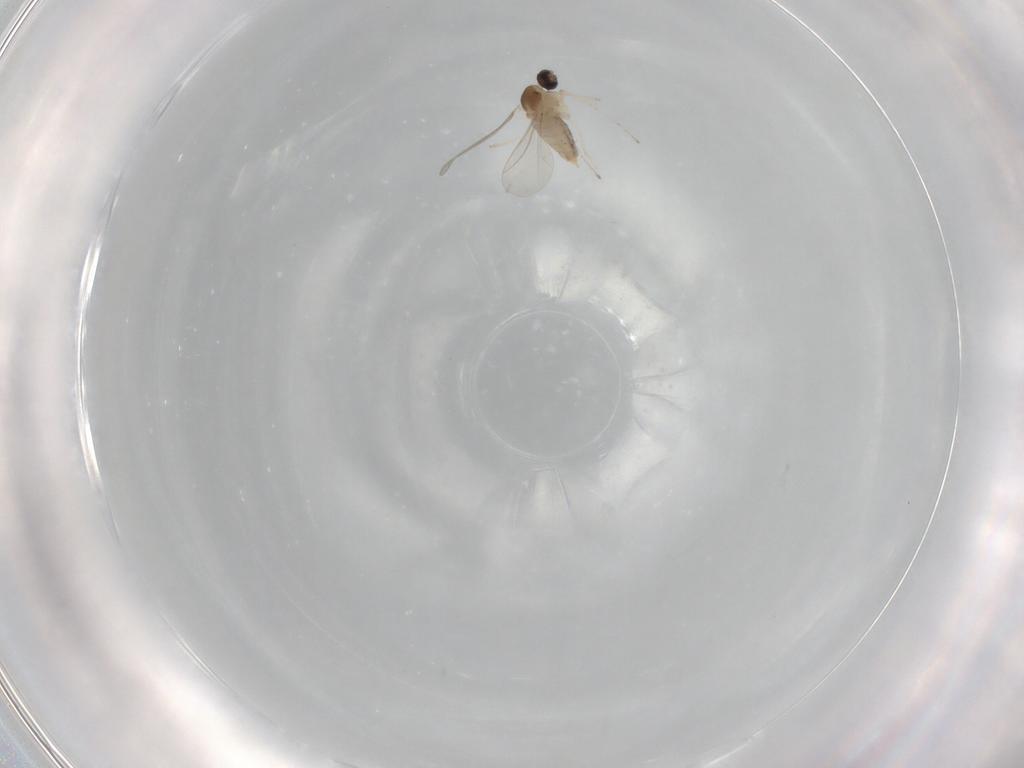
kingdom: Animalia
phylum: Arthropoda
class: Insecta
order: Diptera
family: Cecidomyiidae
